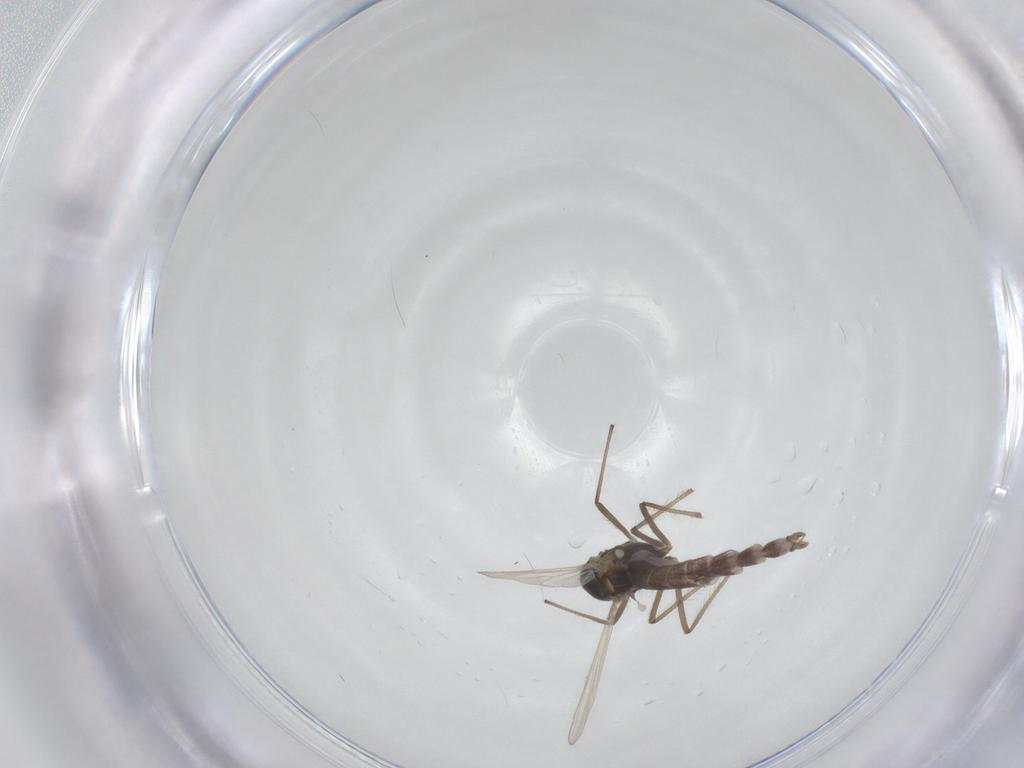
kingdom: Animalia
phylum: Arthropoda
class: Insecta
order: Diptera
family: Chironomidae
